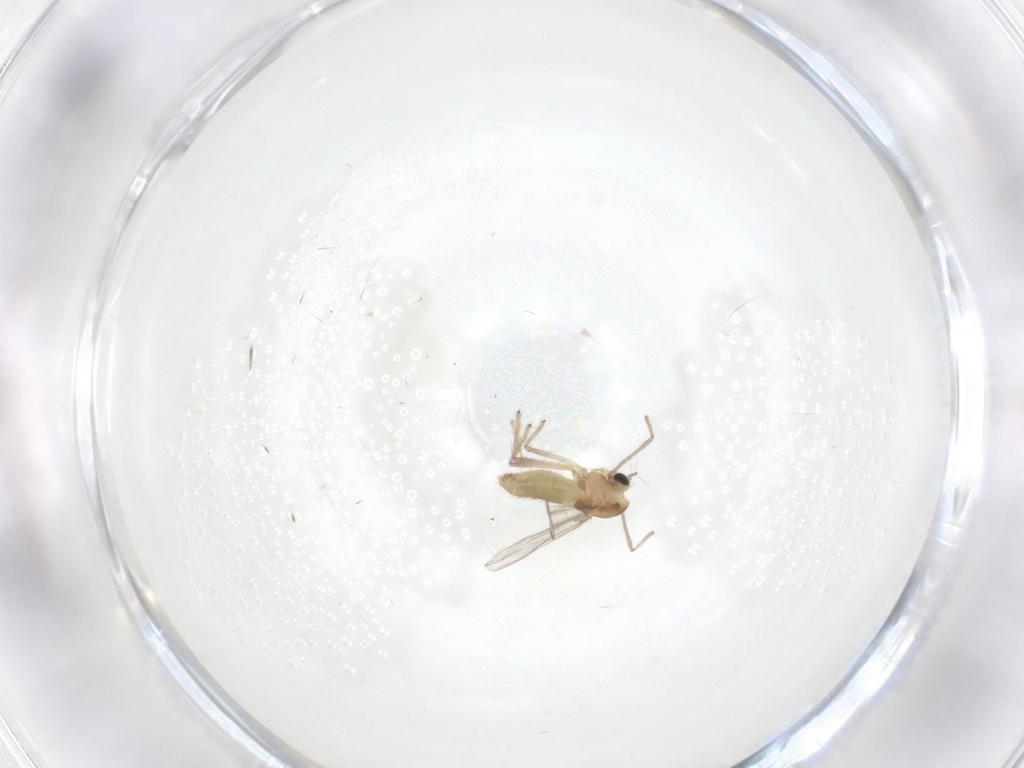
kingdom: Animalia
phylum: Arthropoda
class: Insecta
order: Diptera
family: Chironomidae
